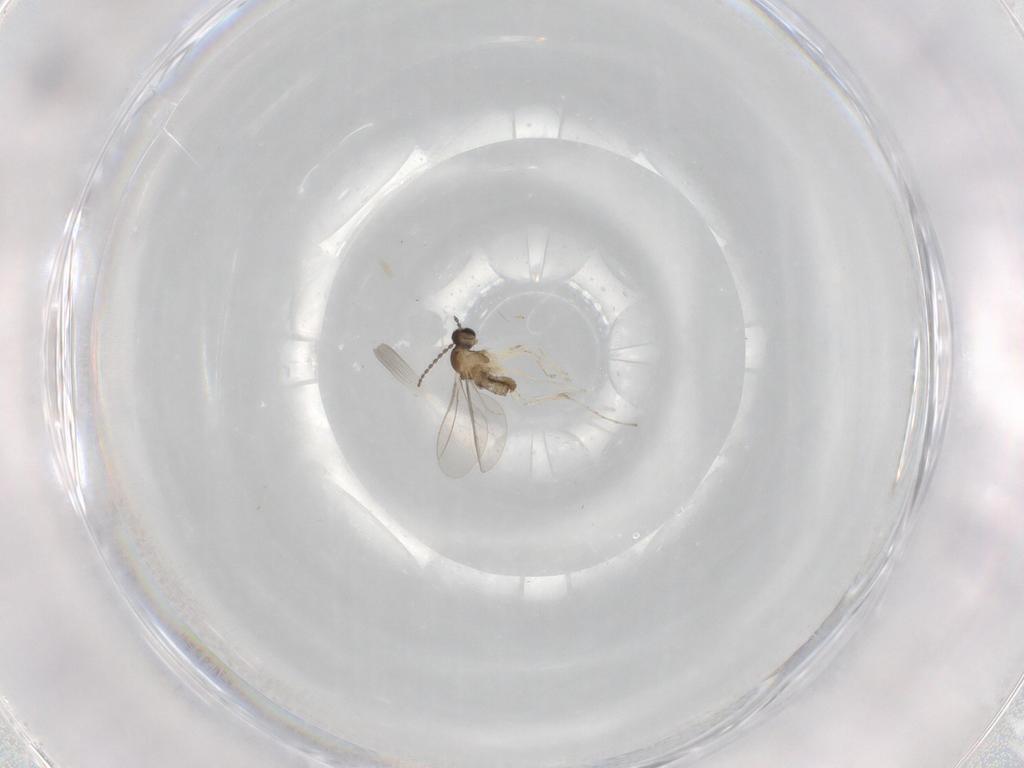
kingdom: Animalia
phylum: Arthropoda
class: Insecta
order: Diptera
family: Cecidomyiidae
